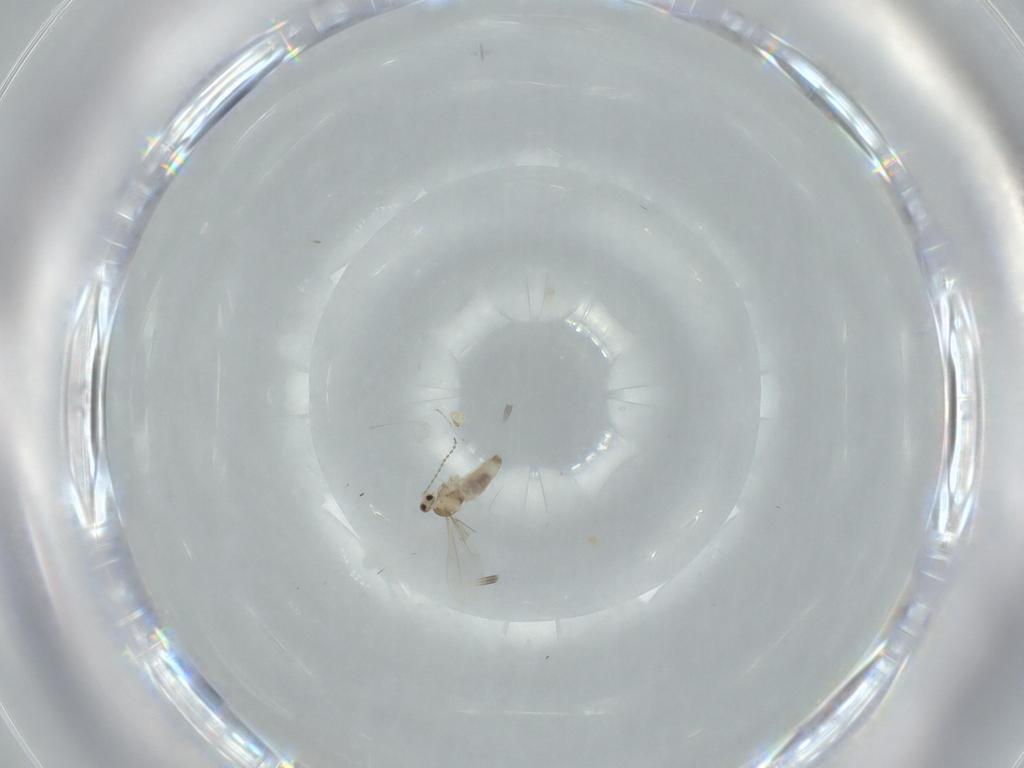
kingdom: Animalia
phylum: Arthropoda
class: Insecta
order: Diptera
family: Cecidomyiidae
